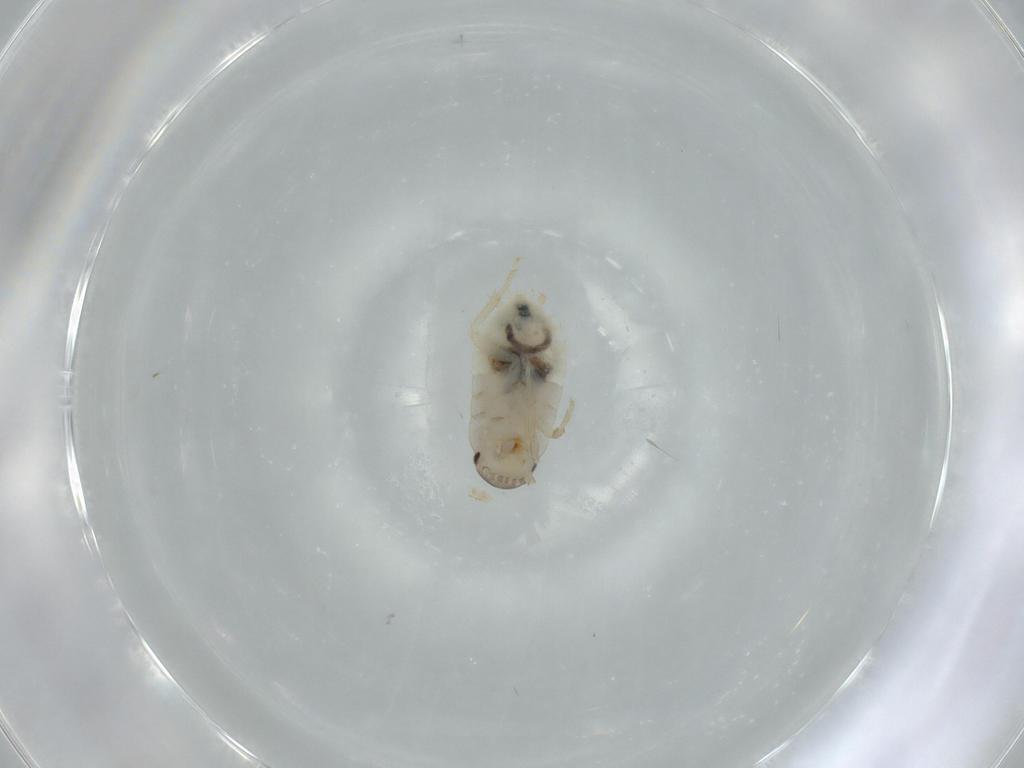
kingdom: Animalia
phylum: Arthropoda
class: Insecta
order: Blattodea
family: Ectobiidae
